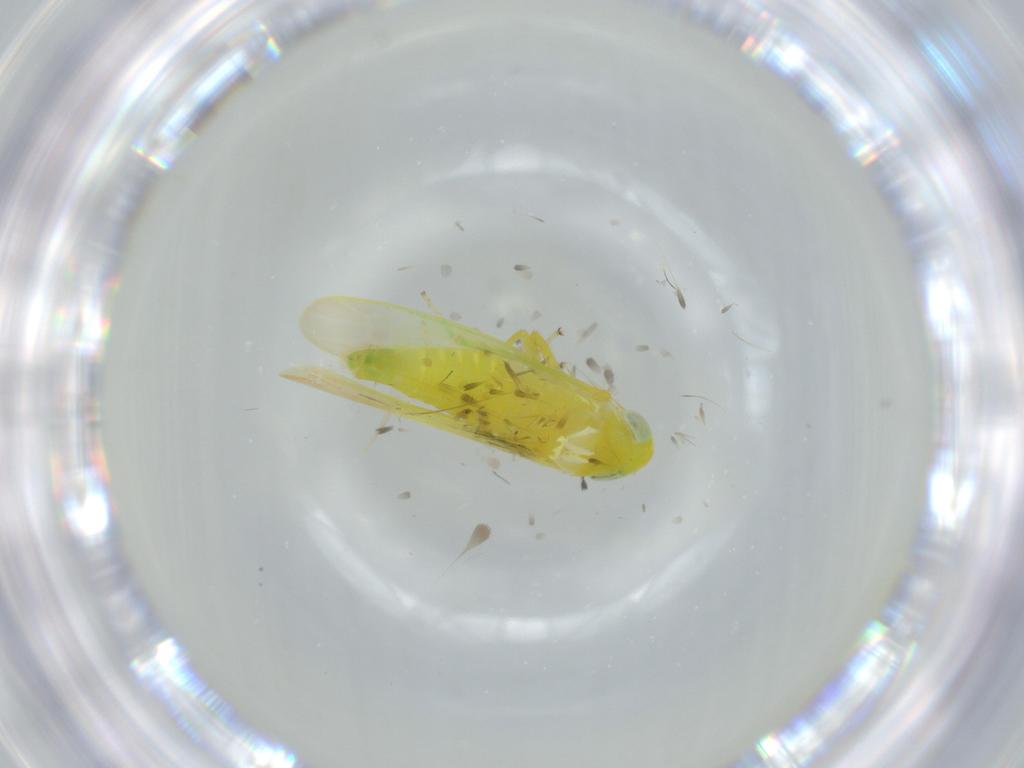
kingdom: Animalia
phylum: Arthropoda
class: Insecta
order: Hemiptera
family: Cicadellidae
